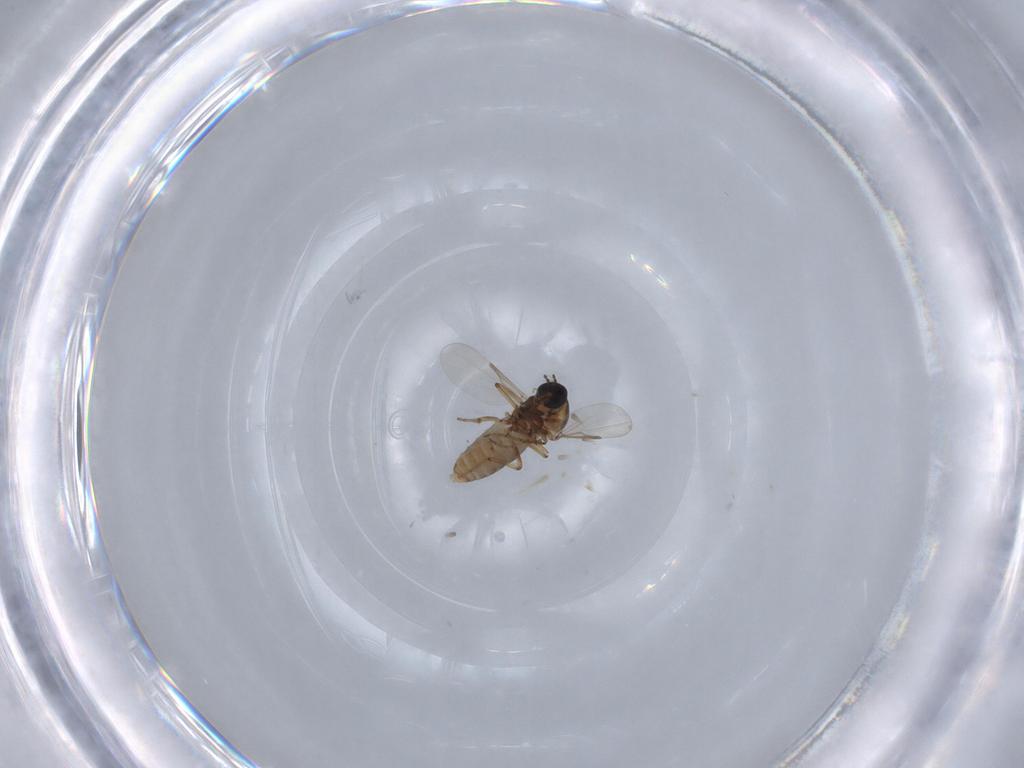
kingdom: Animalia
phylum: Arthropoda
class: Insecta
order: Diptera
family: Ceratopogonidae
